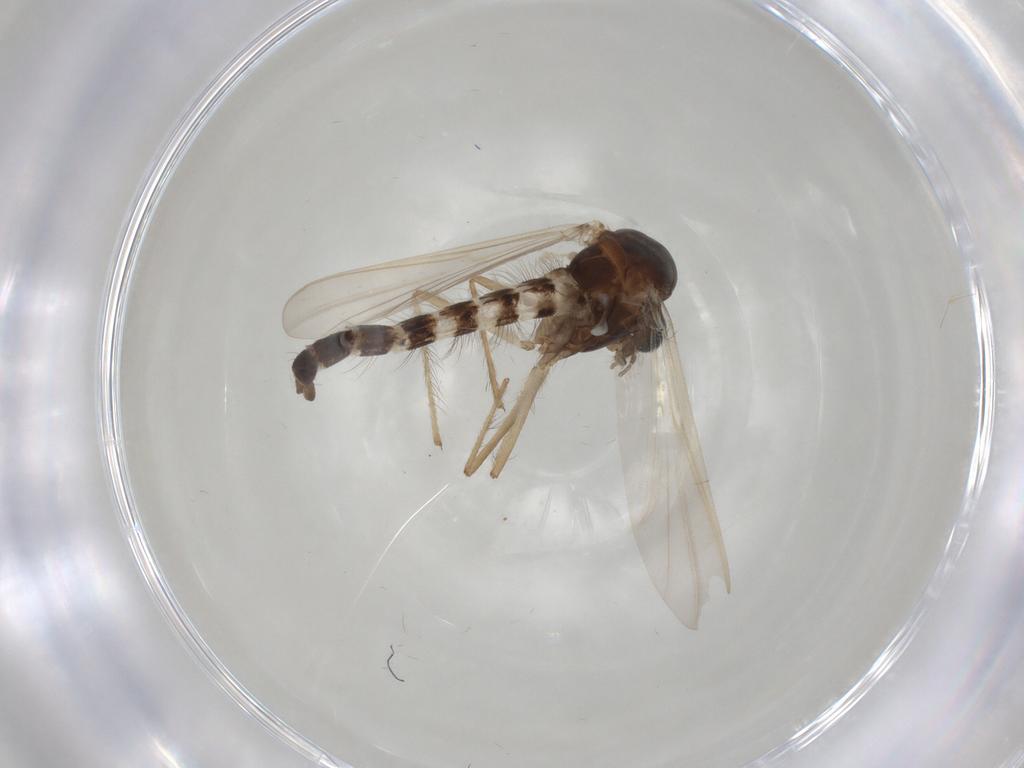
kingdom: Animalia
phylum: Arthropoda
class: Insecta
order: Diptera
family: Chironomidae
